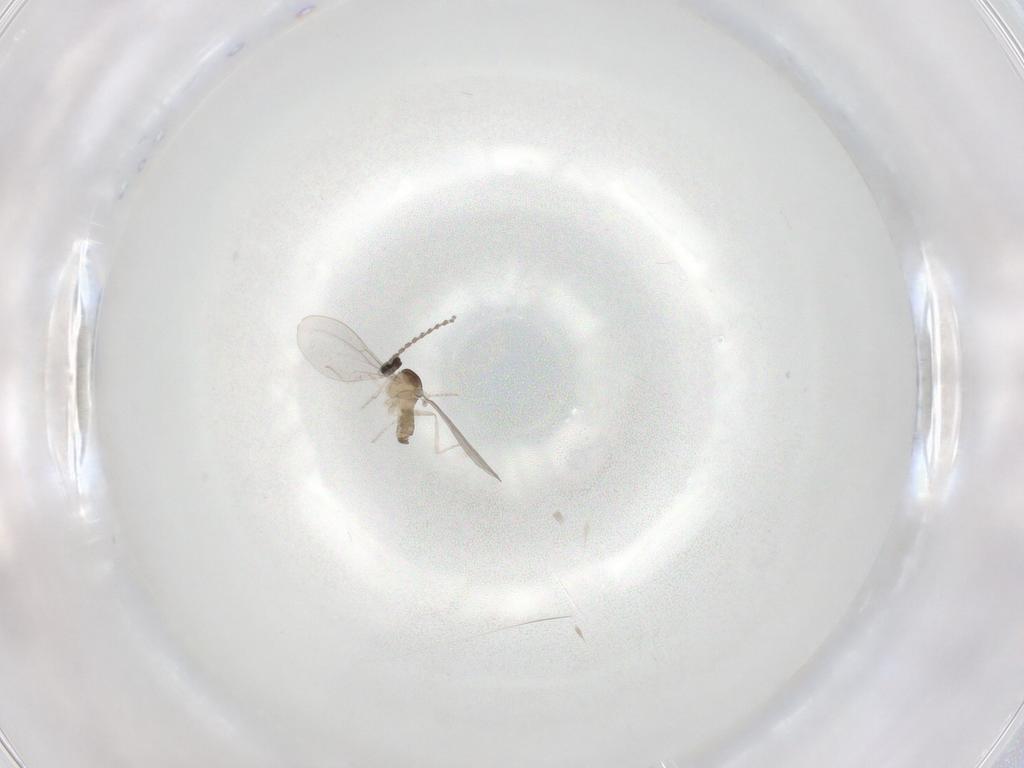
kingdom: Animalia
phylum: Arthropoda
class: Insecta
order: Diptera
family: Cecidomyiidae
